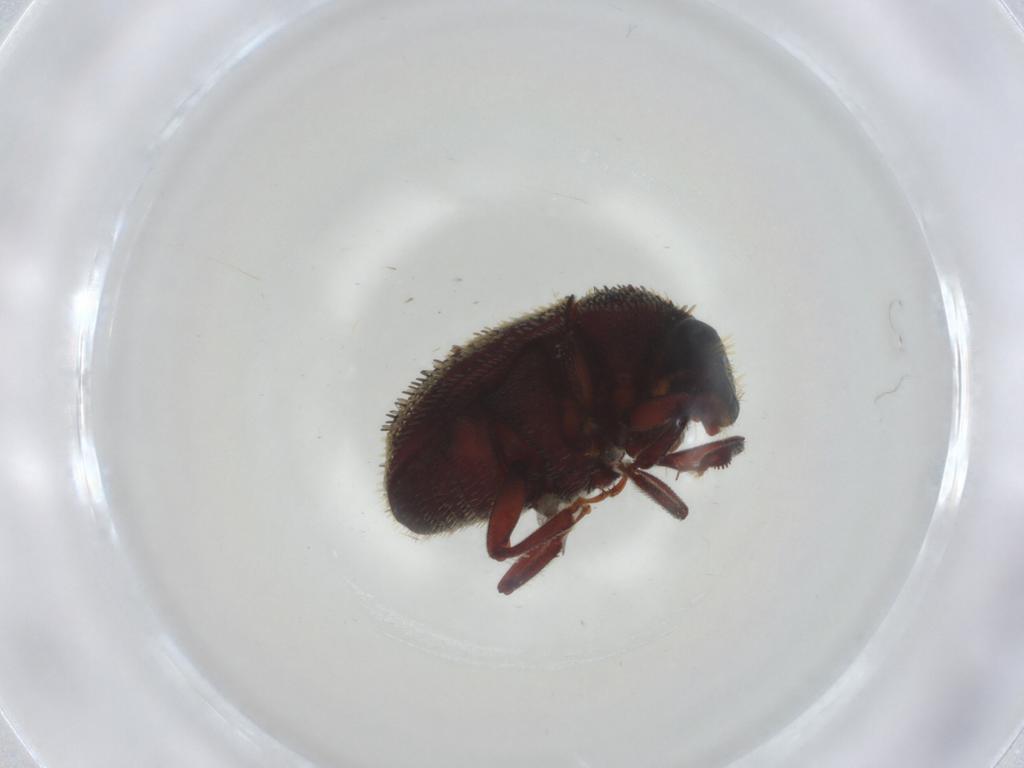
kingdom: Animalia
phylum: Arthropoda
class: Insecta
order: Coleoptera
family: Curculionidae
